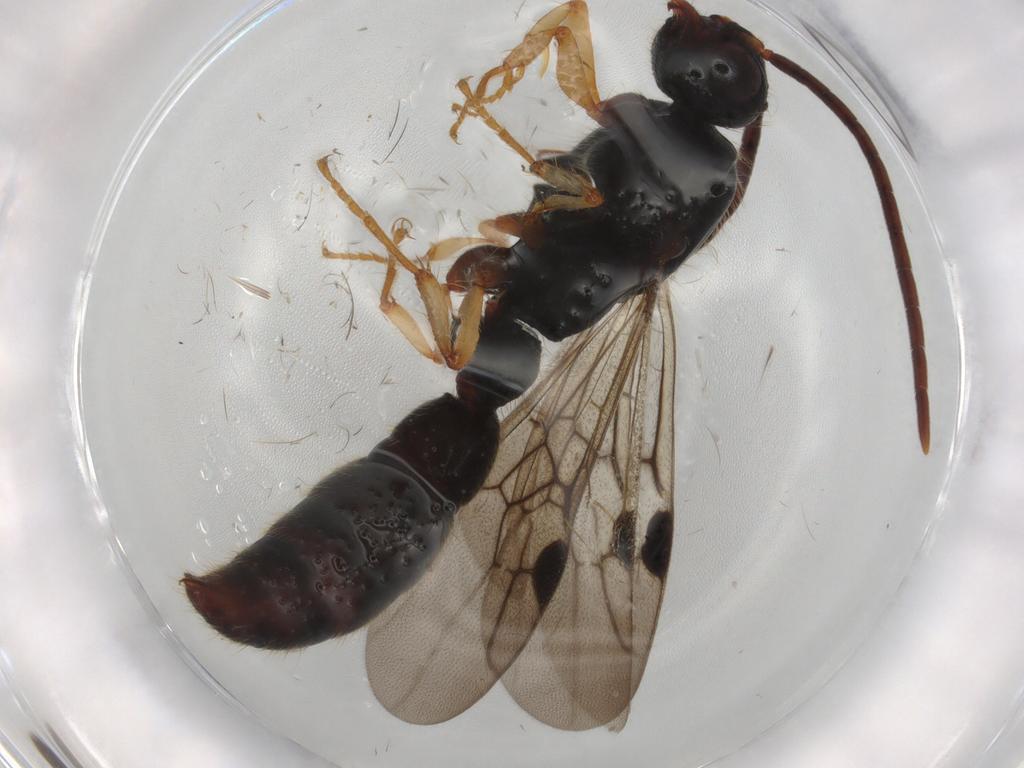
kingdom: Animalia
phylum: Arthropoda
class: Insecta
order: Hymenoptera
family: Formicidae
